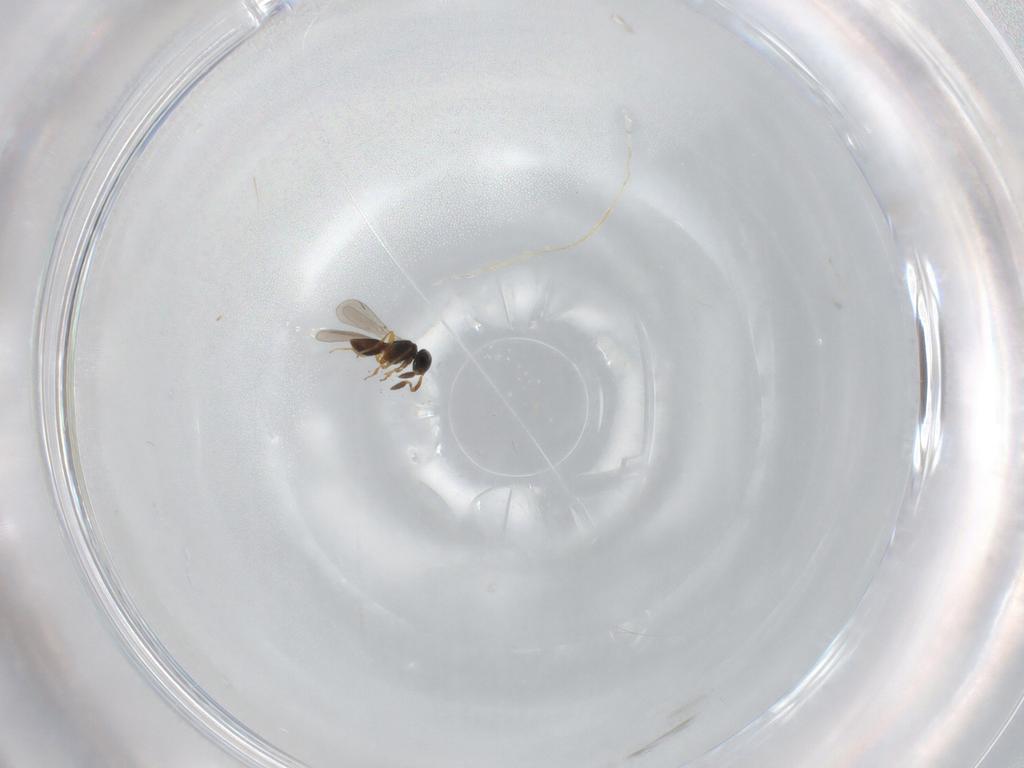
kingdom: Animalia
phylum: Arthropoda
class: Insecta
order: Hymenoptera
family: Platygastridae
